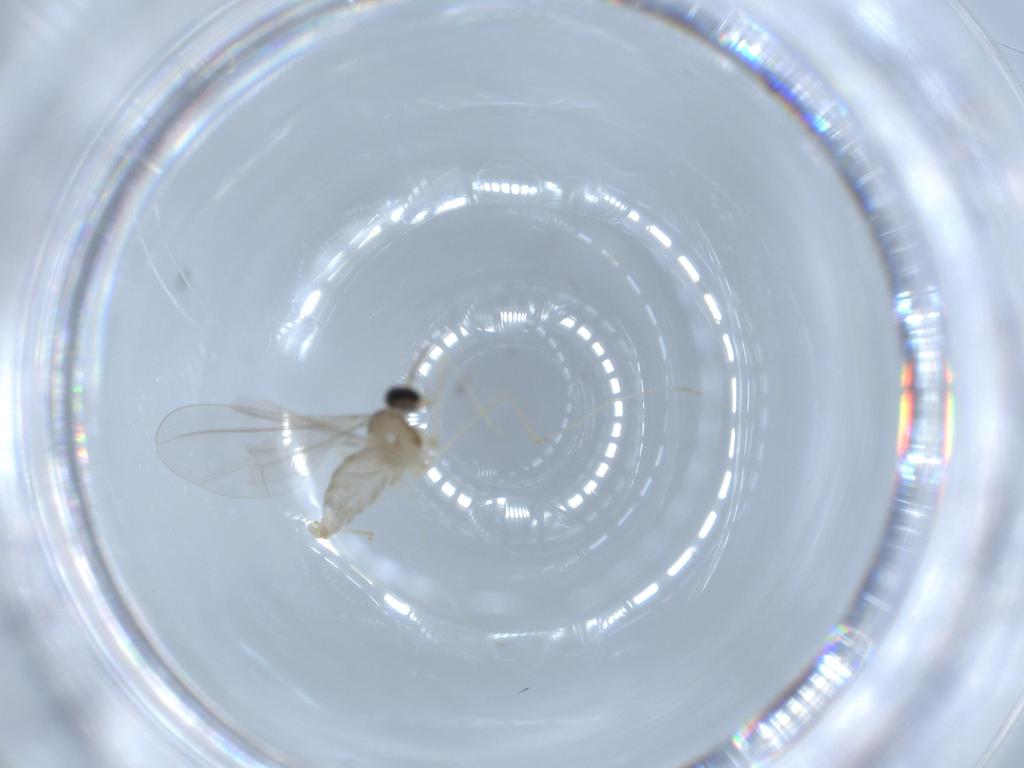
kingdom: Animalia
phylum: Arthropoda
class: Insecta
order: Diptera
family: Cecidomyiidae
